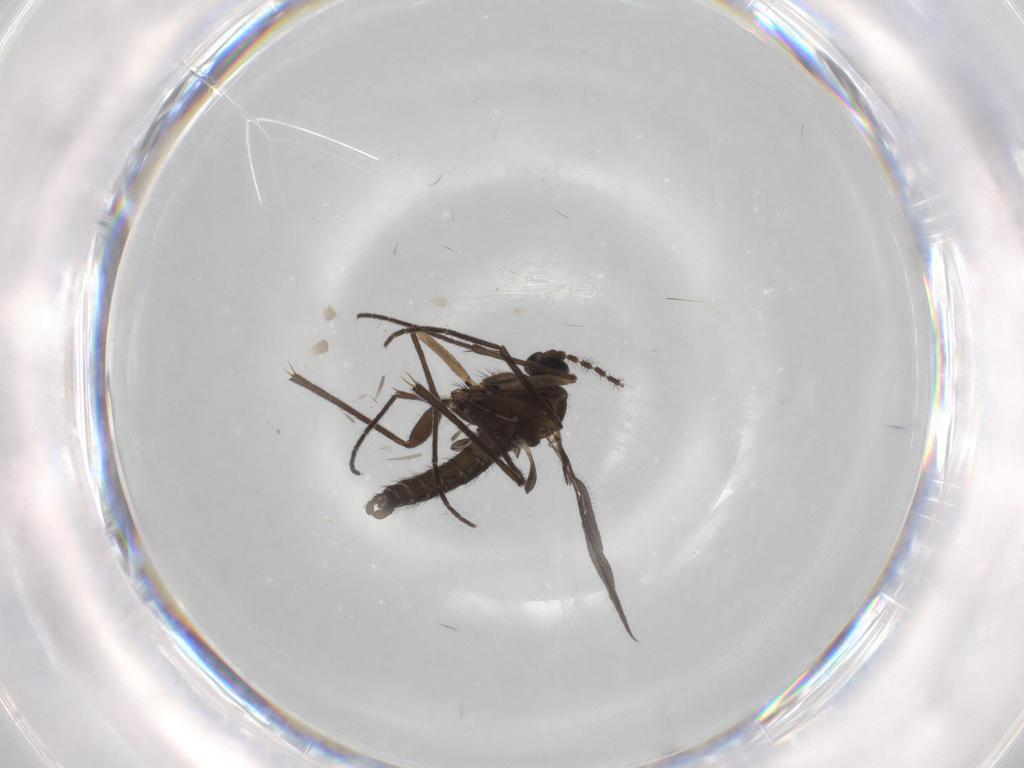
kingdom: Animalia
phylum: Arthropoda
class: Insecta
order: Diptera
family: Sciaridae
